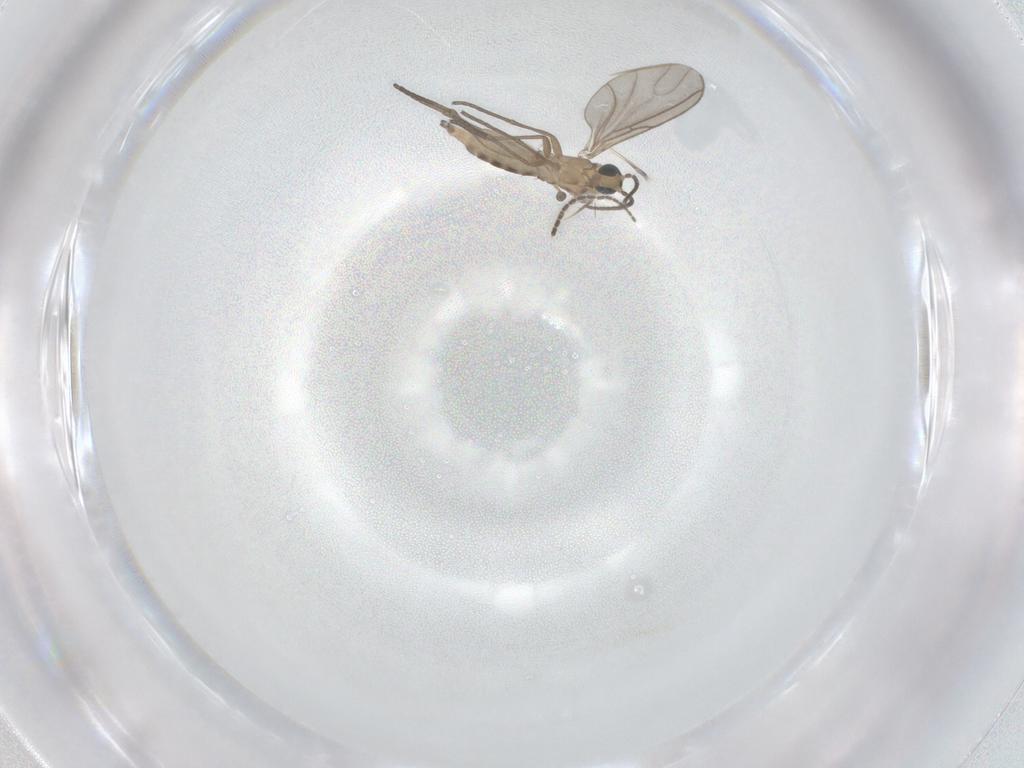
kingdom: Animalia
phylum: Arthropoda
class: Insecta
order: Diptera
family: Sciaridae
